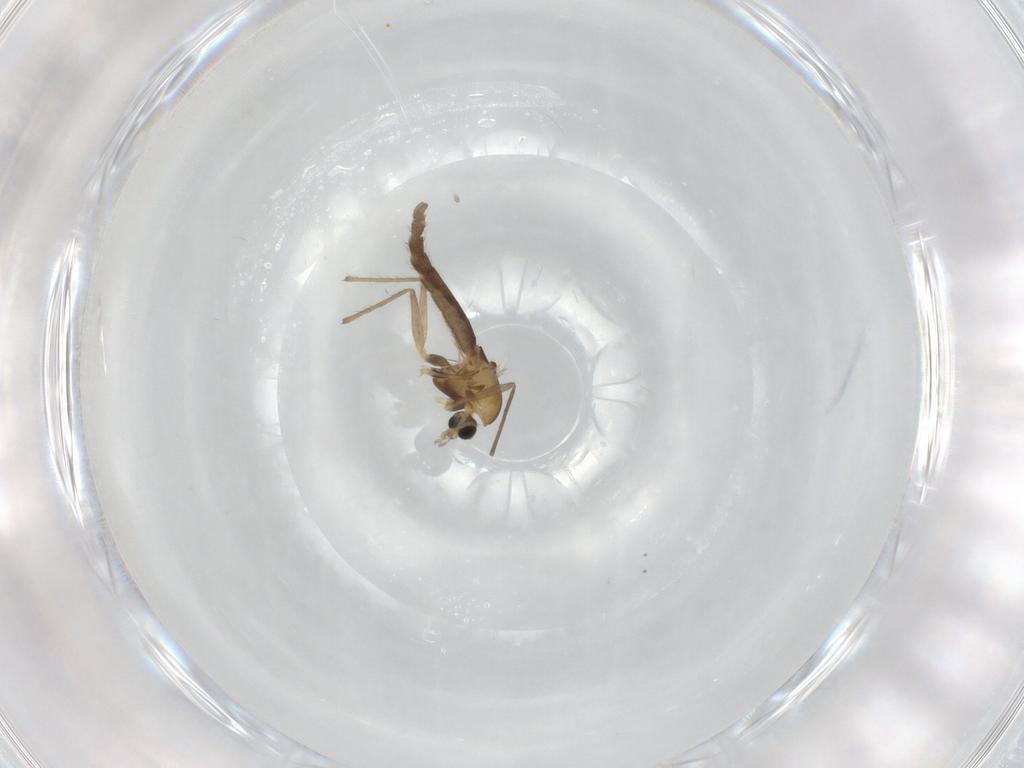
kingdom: Animalia
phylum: Arthropoda
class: Insecta
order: Diptera
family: Chironomidae
